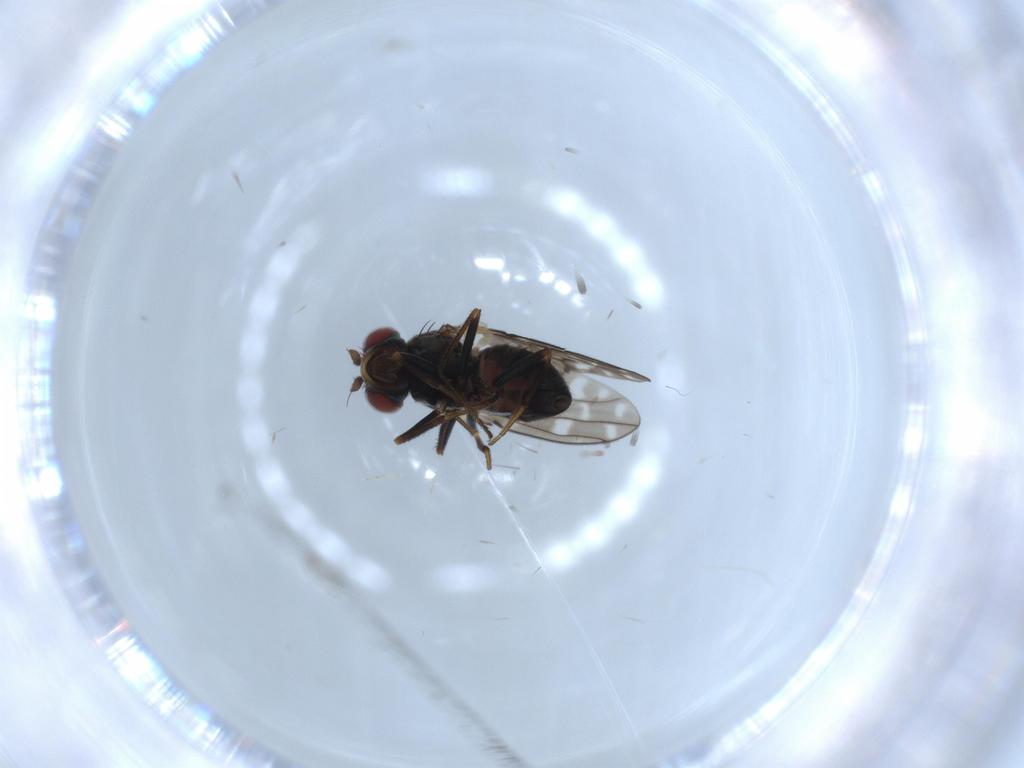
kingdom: Animalia
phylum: Arthropoda
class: Insecta
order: Diptera
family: Ephydridae
